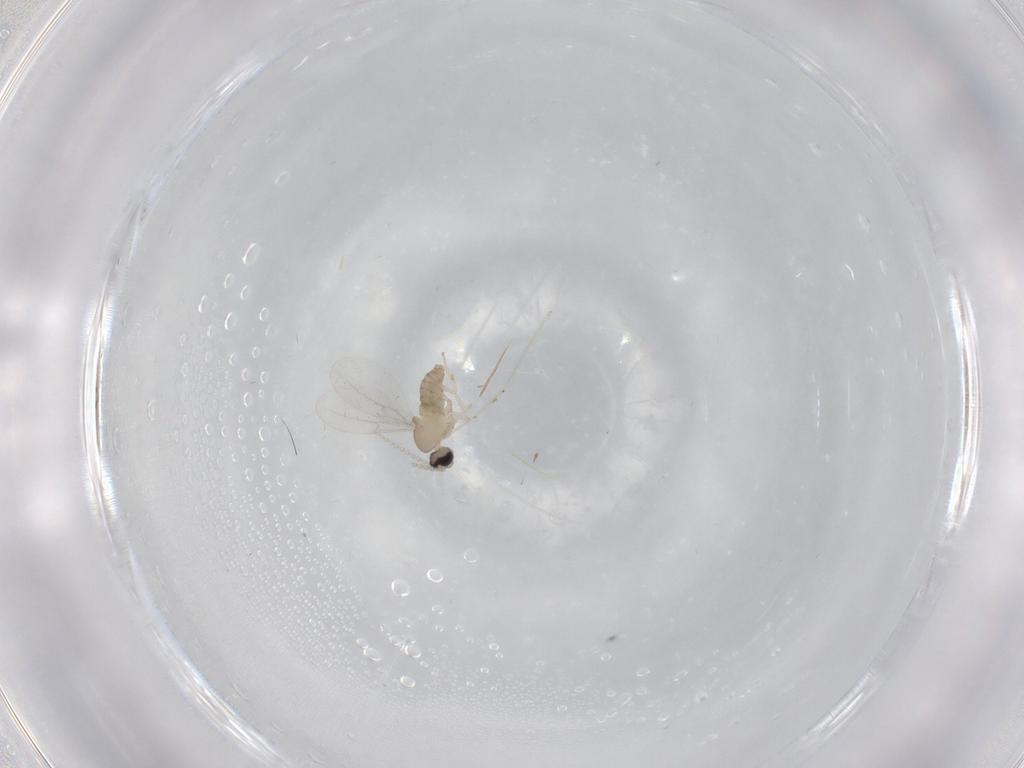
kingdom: Animalia
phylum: Arthropoda
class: Insecta
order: Diptera
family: Cecidomyiidae
